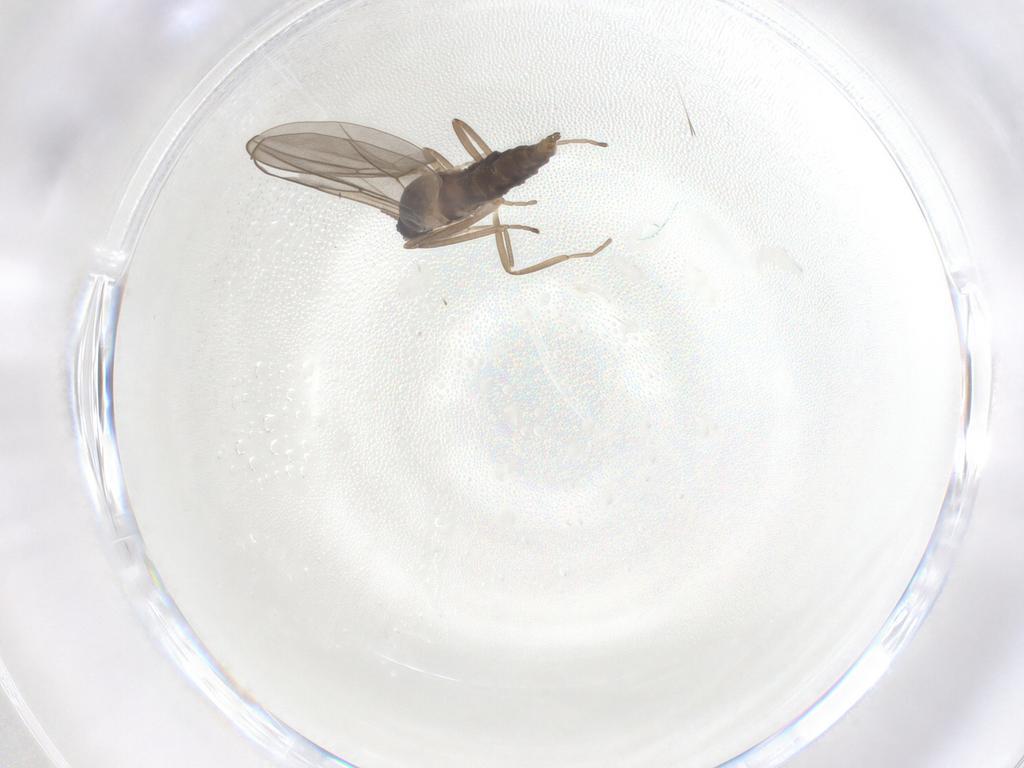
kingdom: Animalia
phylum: Arthropoda
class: Insecta
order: Diptera
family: Cecidomyiidae
